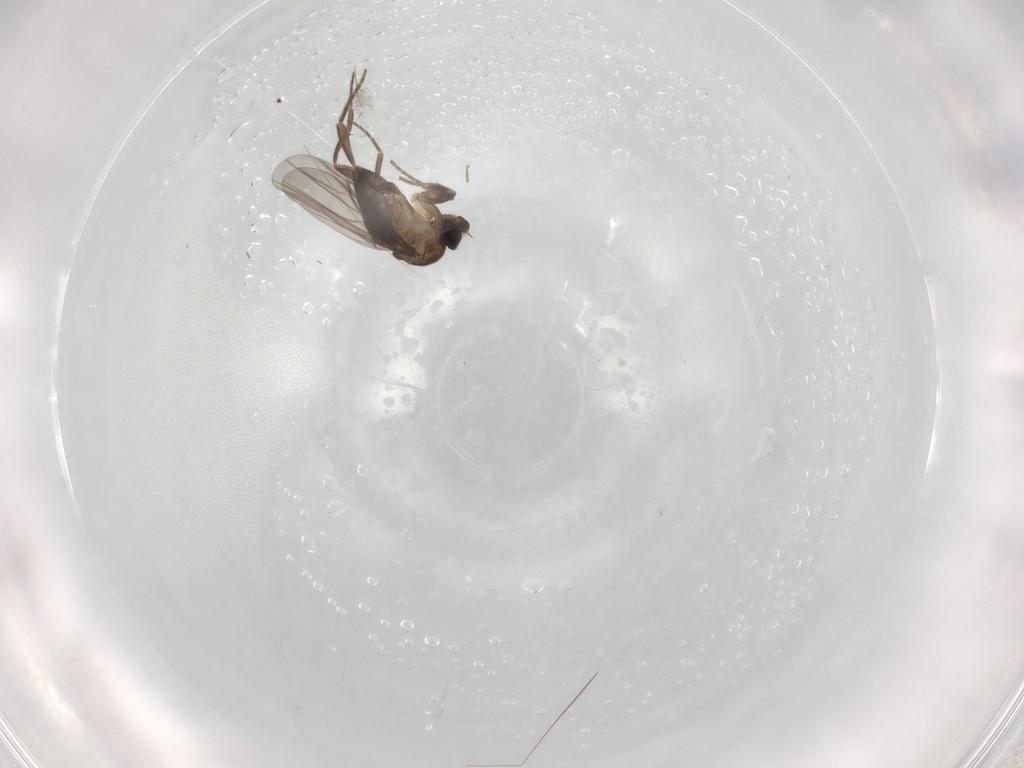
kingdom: Animalia
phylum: Arthropoda
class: Insecta
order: Diptera
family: Phoridae
